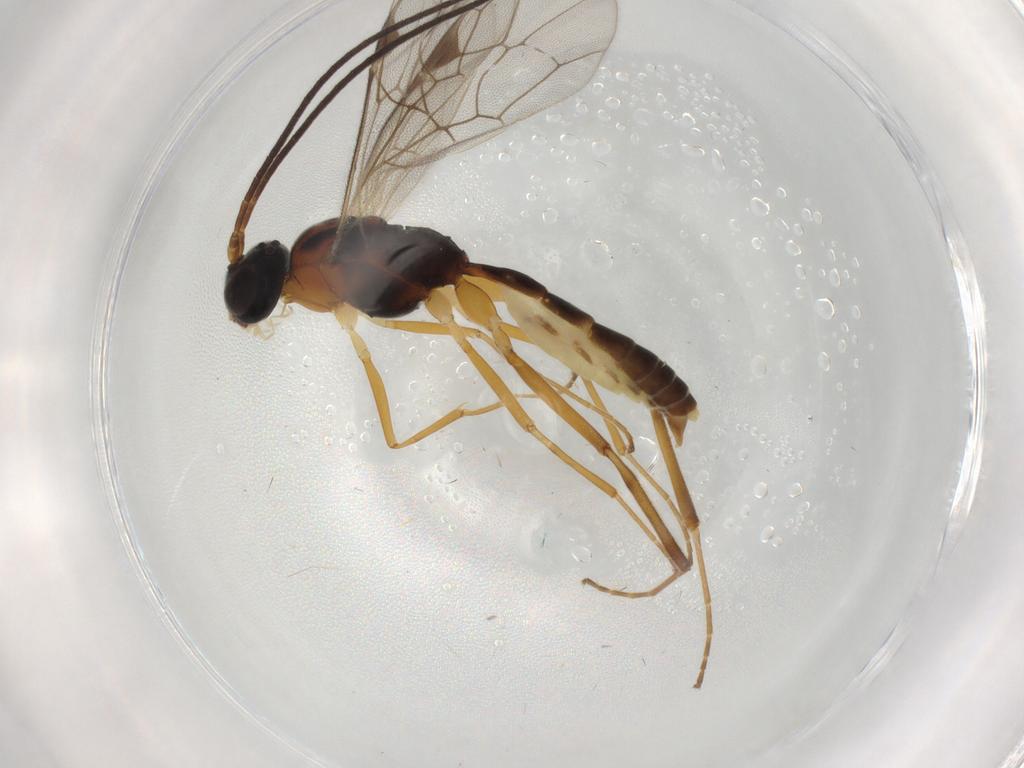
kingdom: Animalia
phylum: Arthropoda
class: Insecta
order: Hymenoptera
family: Ichneumonidae
